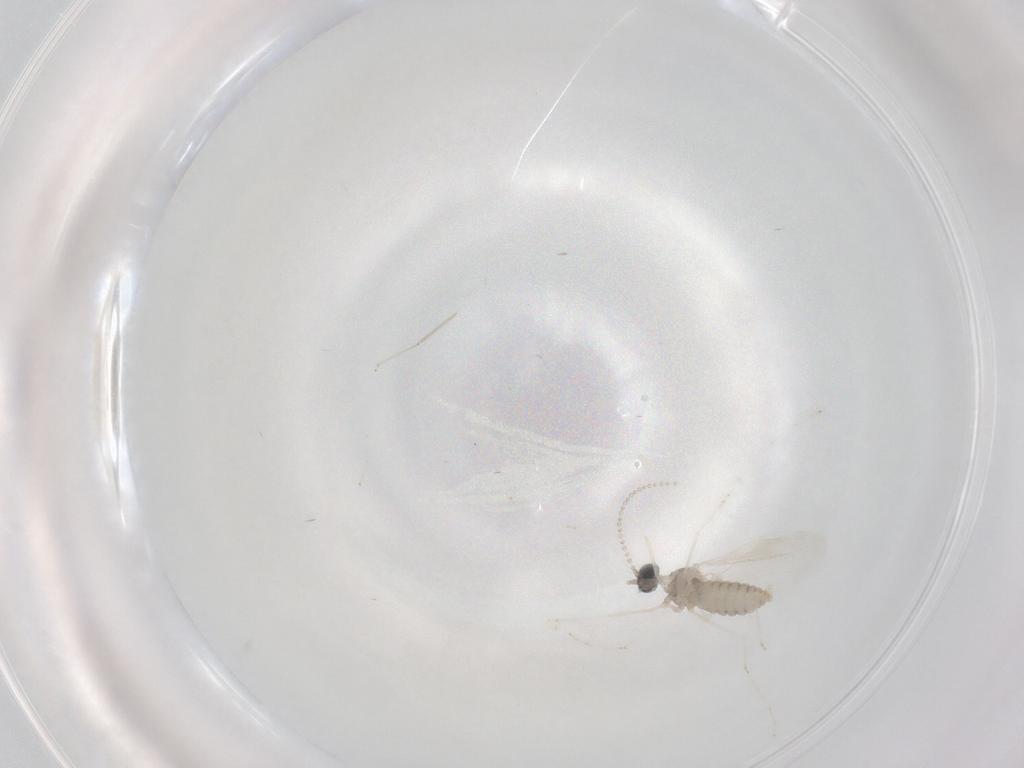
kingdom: Animalia
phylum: Arthropoda
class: Insecta
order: Diptera
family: Cecidomyiidae
